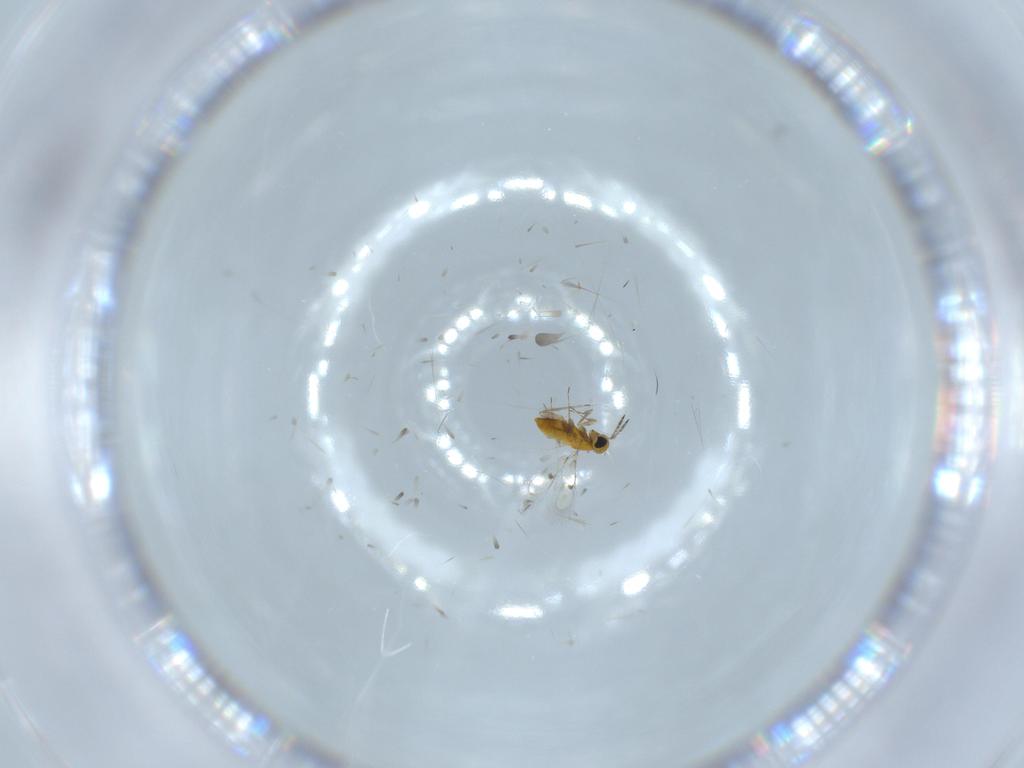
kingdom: Animalia
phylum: Arthropoda
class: Insecta
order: Hymenoptera
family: Trichogrammatidae
